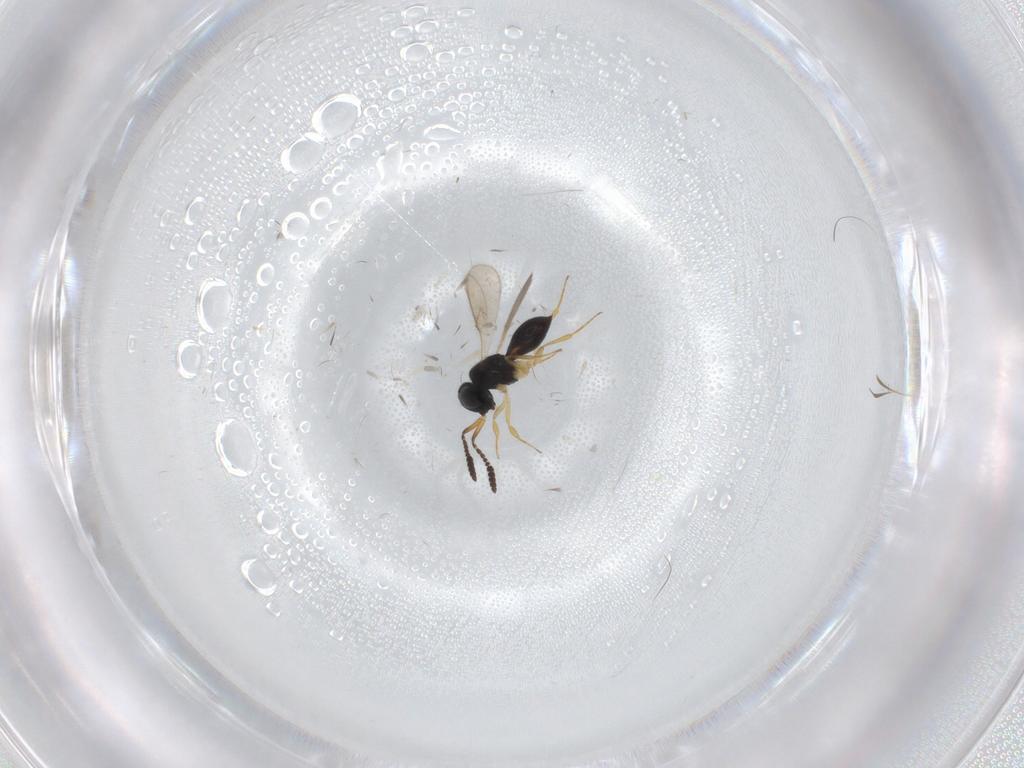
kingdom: Animalia
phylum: Arthropoda
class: Insecta
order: Hymenoptera
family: Scelionidae
